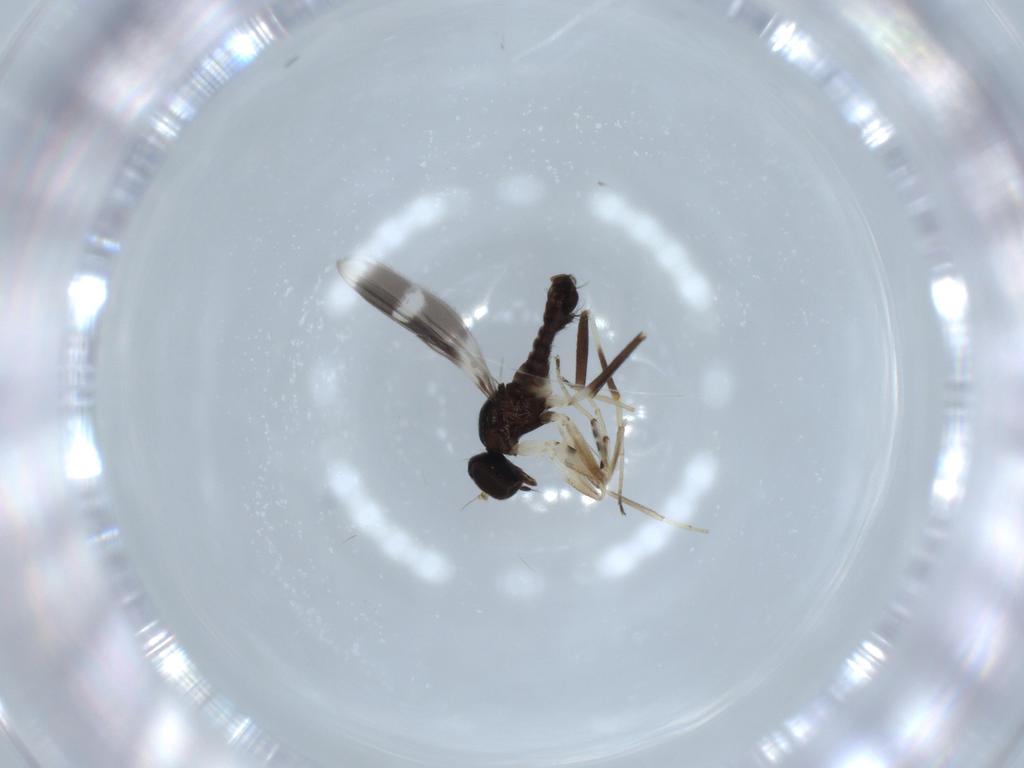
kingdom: Animalia
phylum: Arthropoda
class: Insecta
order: Diptera
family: Hybotidae
